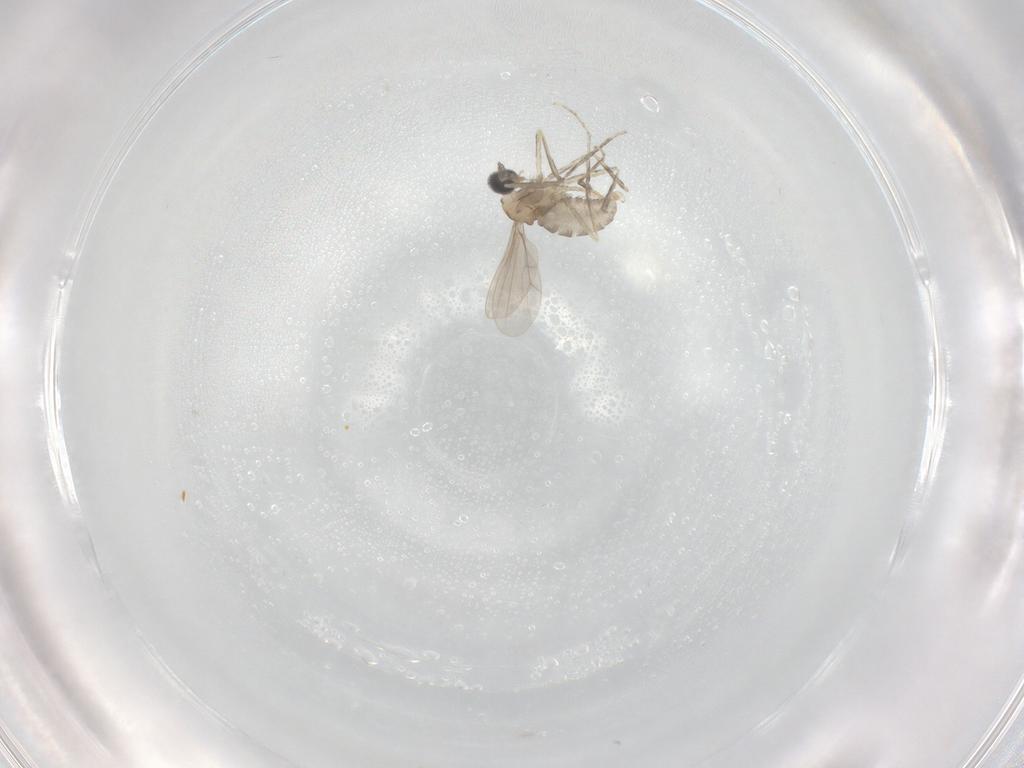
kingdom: Animalia
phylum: Arthropoda
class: Insecta
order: Diptera
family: Cecidomyiidae
